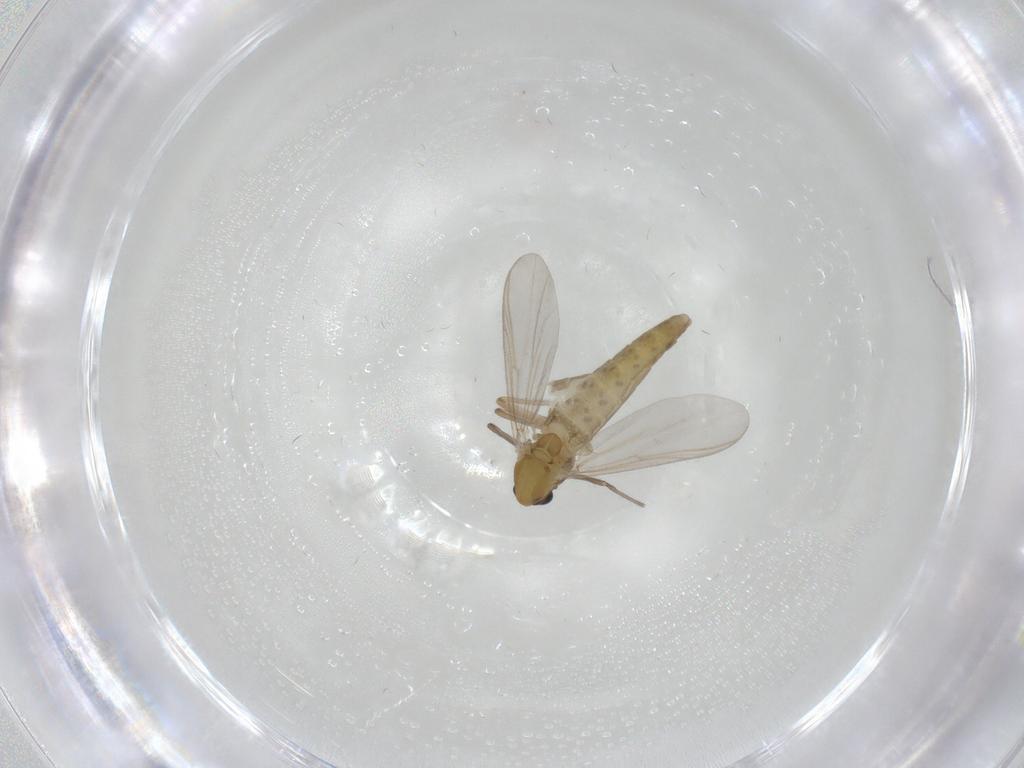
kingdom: Animalia
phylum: Arthropoda
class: Insecta
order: Diptera
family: Chironomidae
